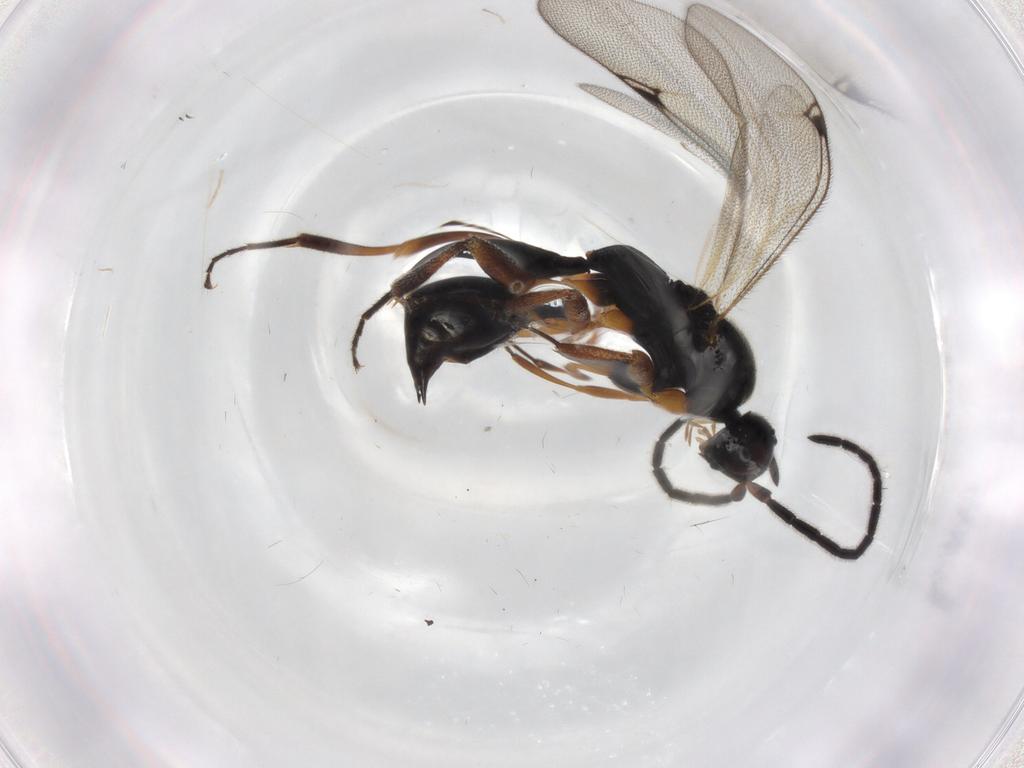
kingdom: Animalia
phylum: Arthropoda
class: Insecta
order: Hymenoptera
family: Proctotrupidae
